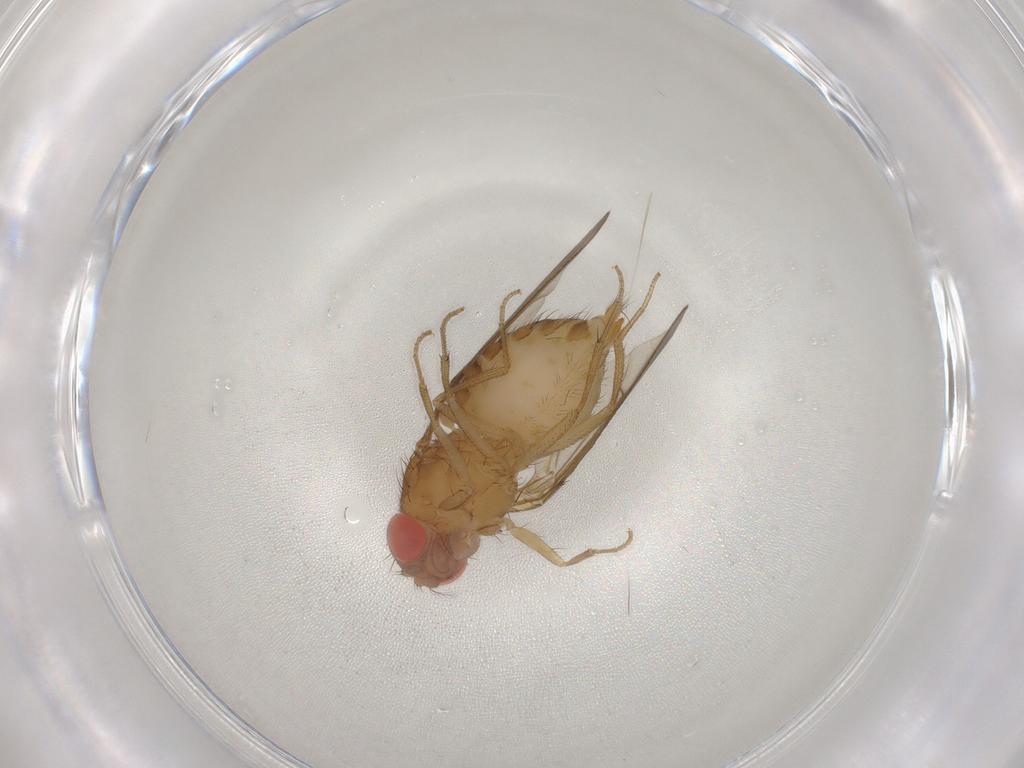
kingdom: Animalia
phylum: Arthropoda
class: Insecta
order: Diptera
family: Drosophilidae
